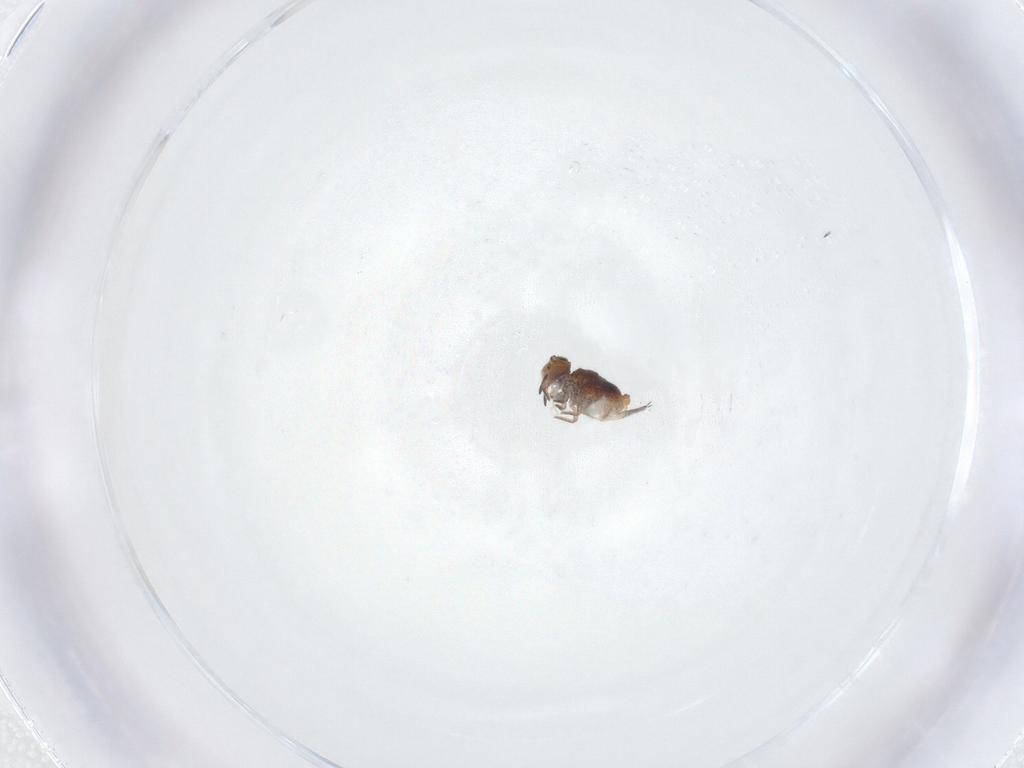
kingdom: Animalia
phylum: Arthropoda
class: Collembola
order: Symphypleona
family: Sminthuridae
